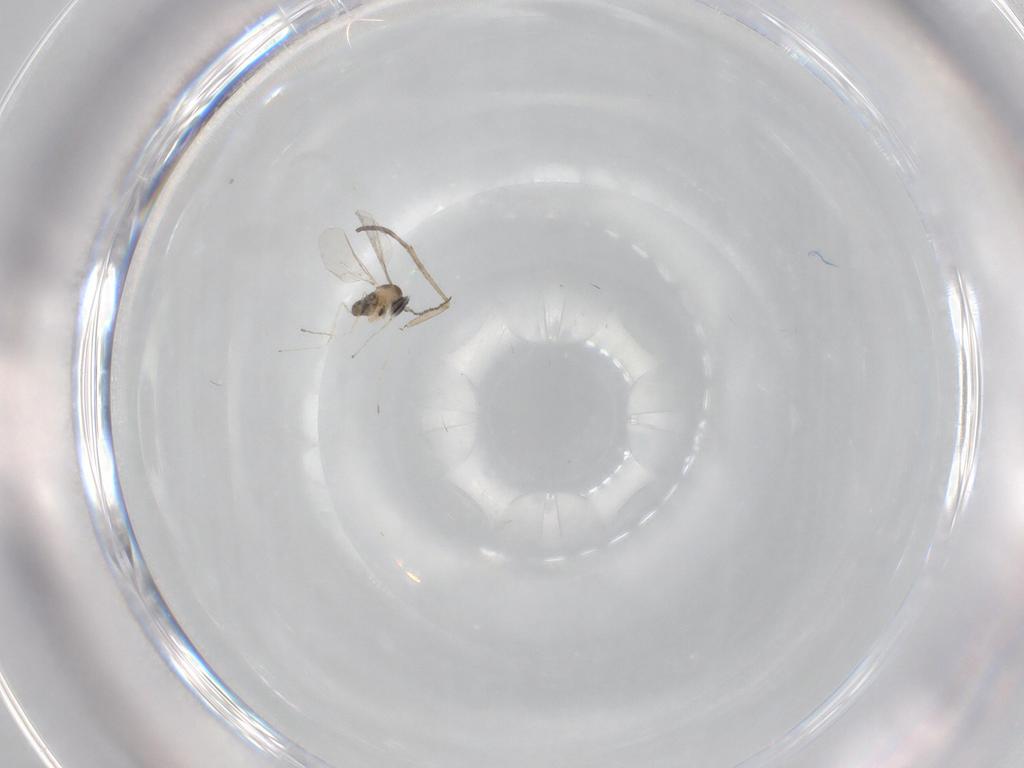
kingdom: Animalia
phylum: Arthropoda
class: Insecta
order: Diptera
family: Cecidomyiidae
